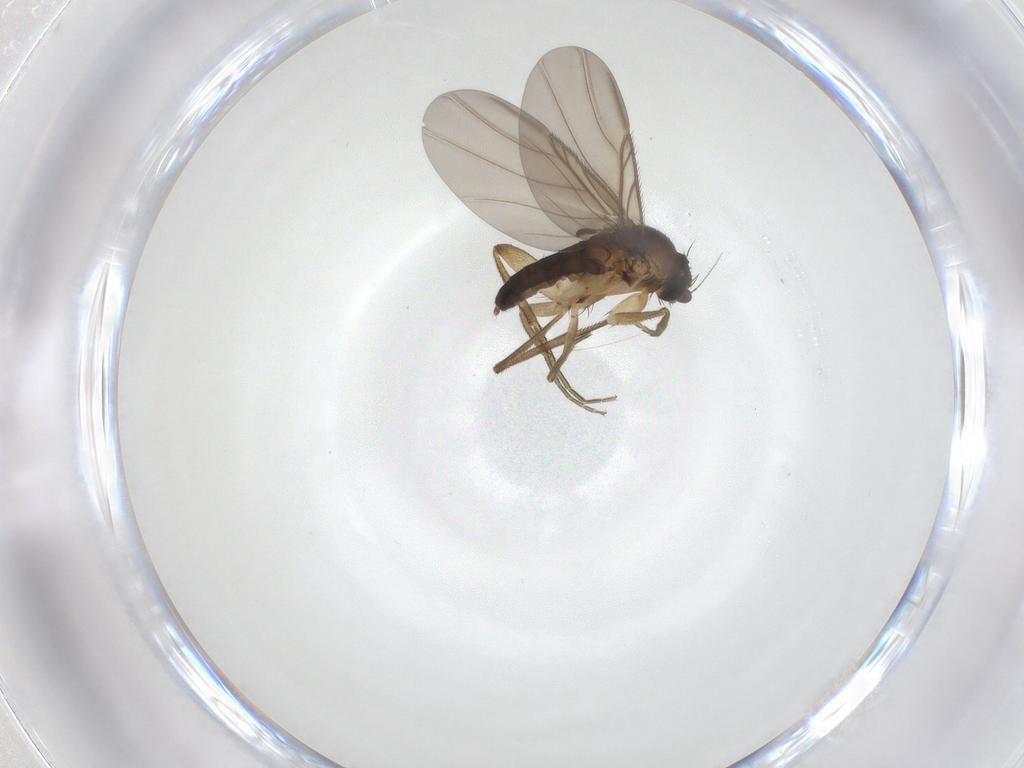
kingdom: Animalia
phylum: Arthropoda
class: Insecta
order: Diptera
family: Phoridae
